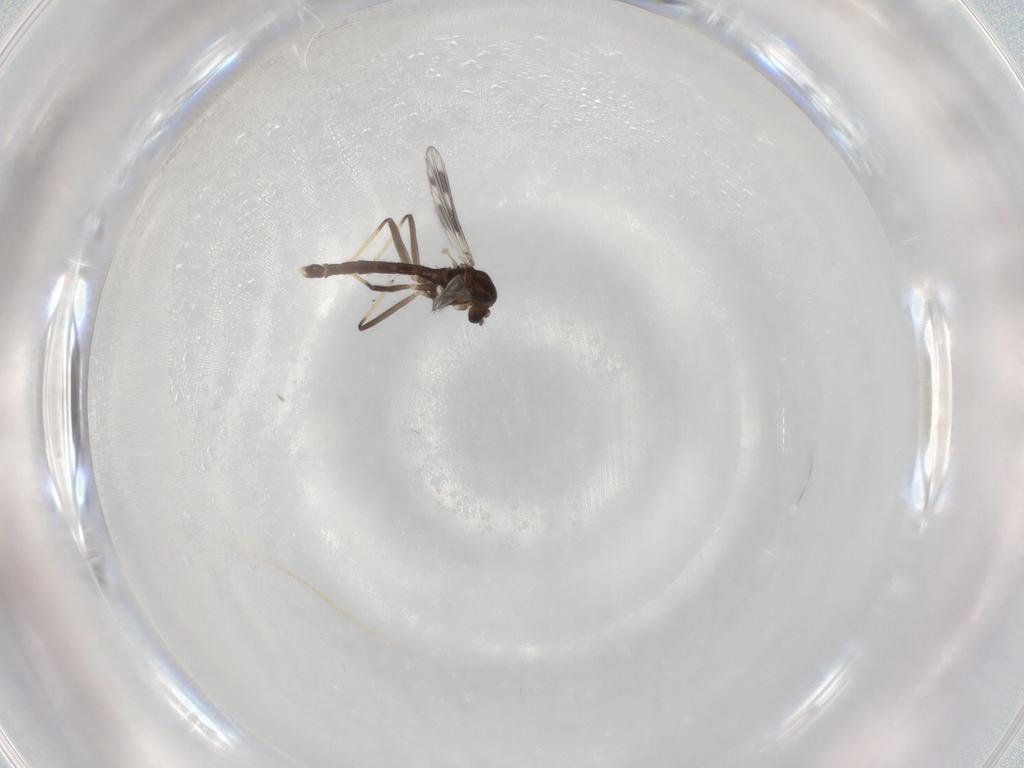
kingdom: Animalia
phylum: Arthropoda
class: Insecta
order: Diptera
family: Chironomidae
